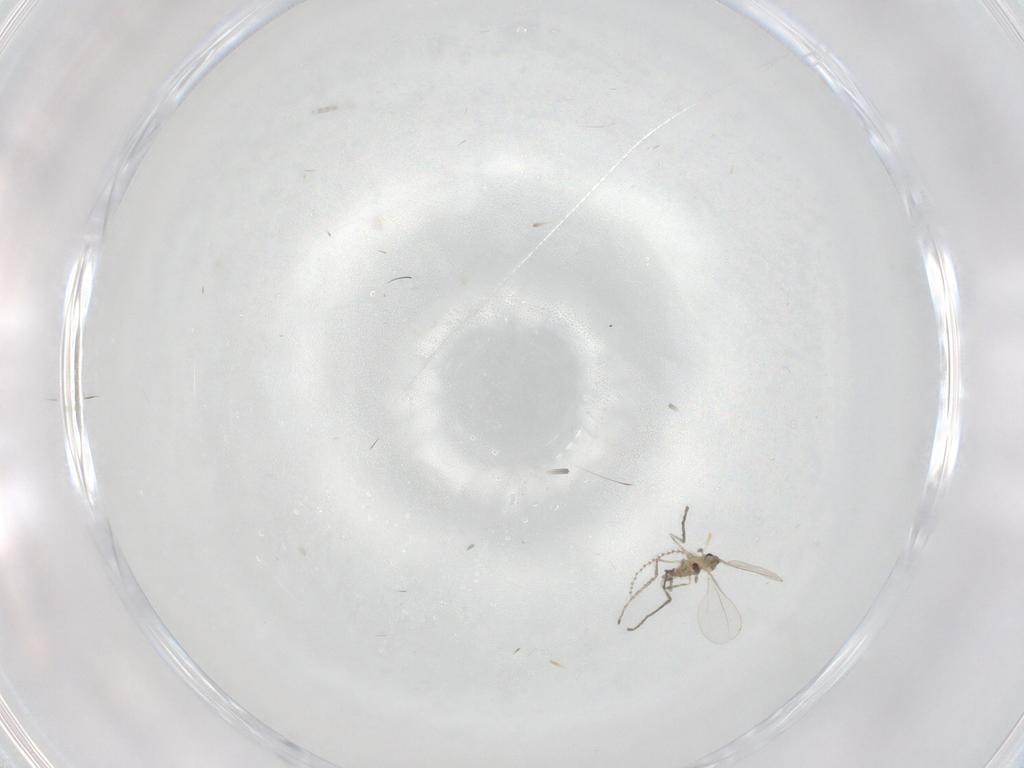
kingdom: Animalia
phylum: Arthropoda
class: Insecta
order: Diptera
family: Cecidomyiidae
